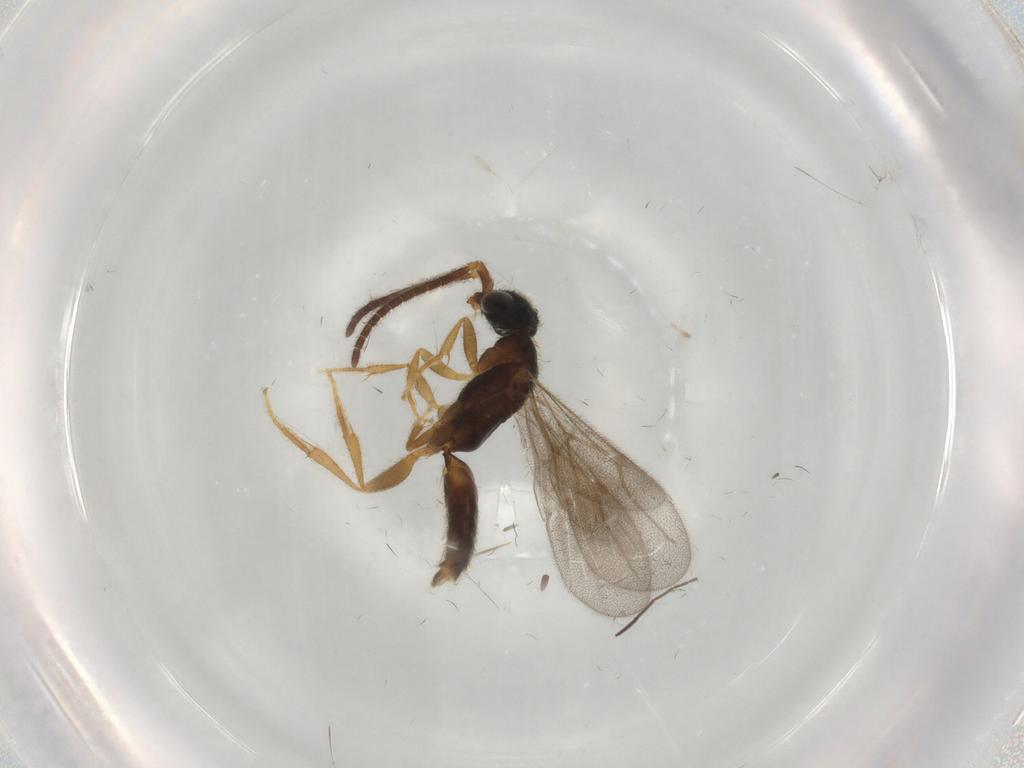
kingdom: Animalia
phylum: Arthropoda
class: Insecta
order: Hymenoptera
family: Bethylidae
